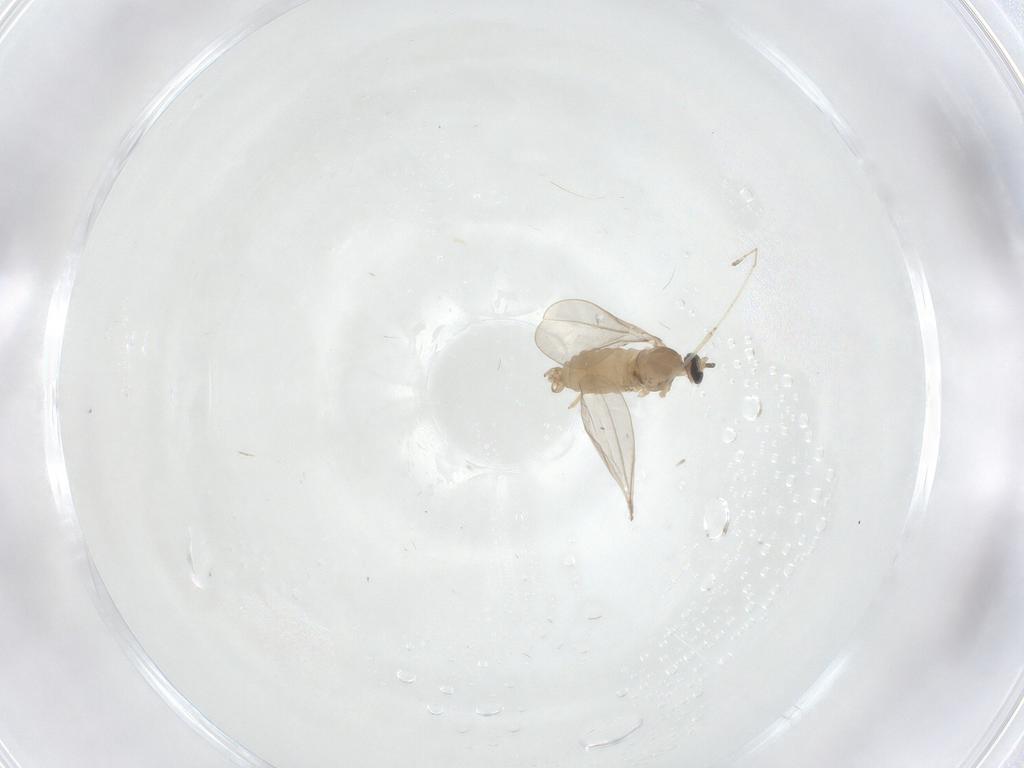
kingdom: Animalia
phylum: Arthropoda
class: Insecta
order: Diptera
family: Cecidomyiidae
